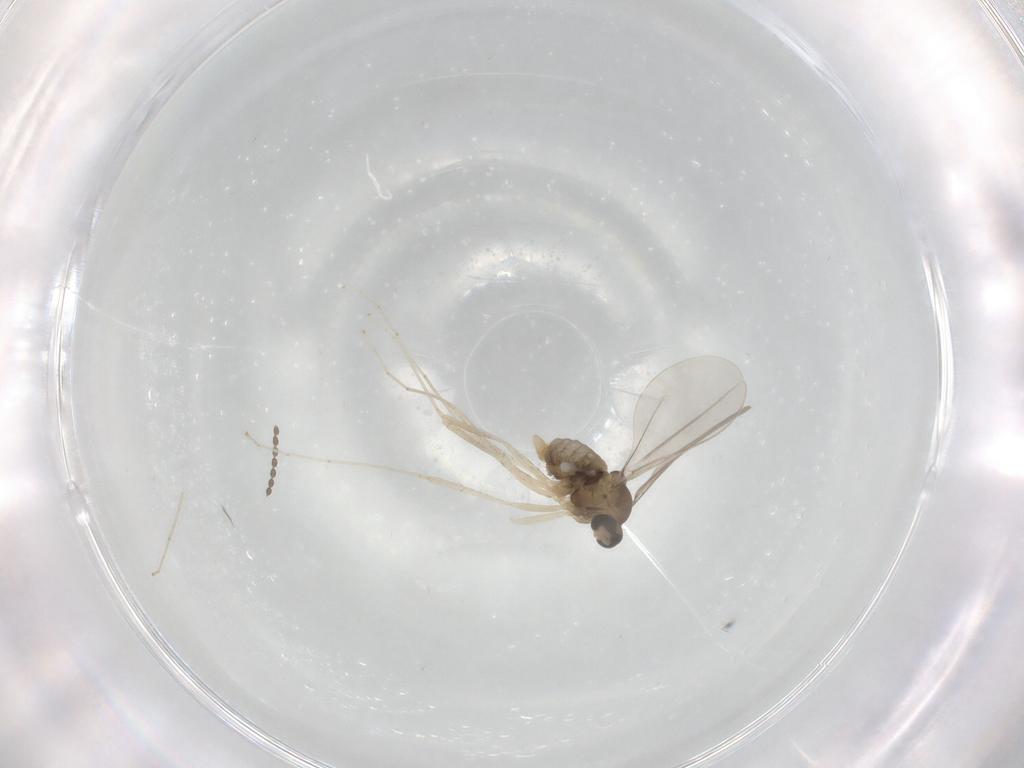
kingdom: Animalia
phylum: Arthropoda
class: Insecta
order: Diptera
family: Cecidomyiidae
